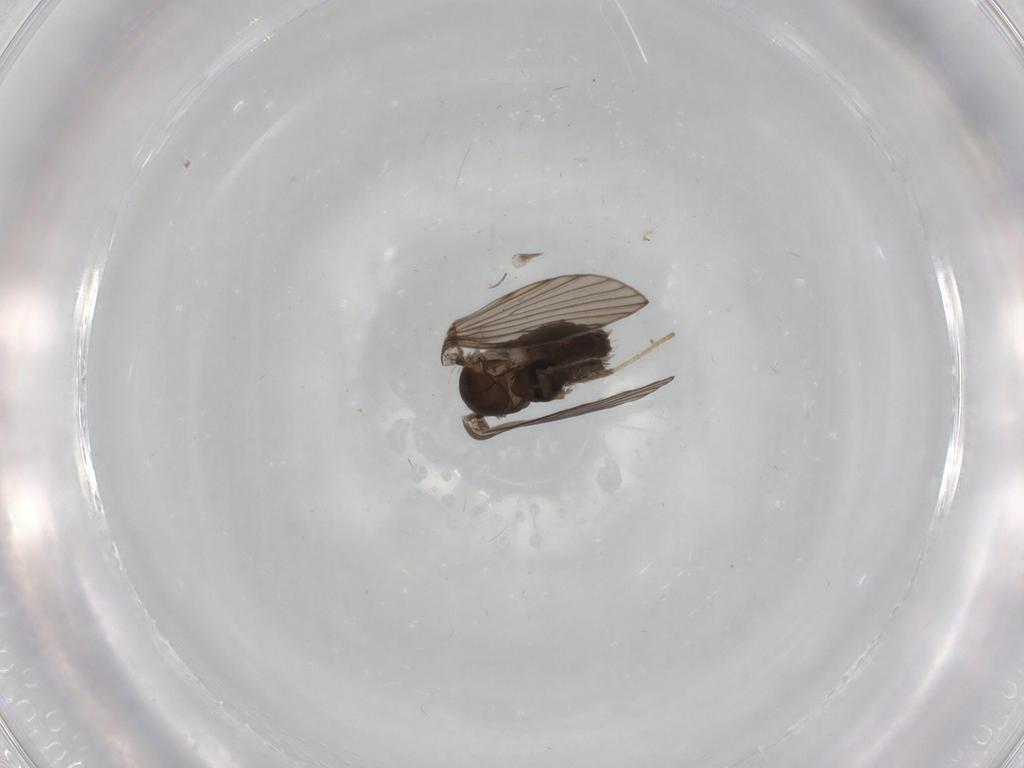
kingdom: Animalia
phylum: Arthropoda
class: Insecta
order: Diptera
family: Psychodidae
